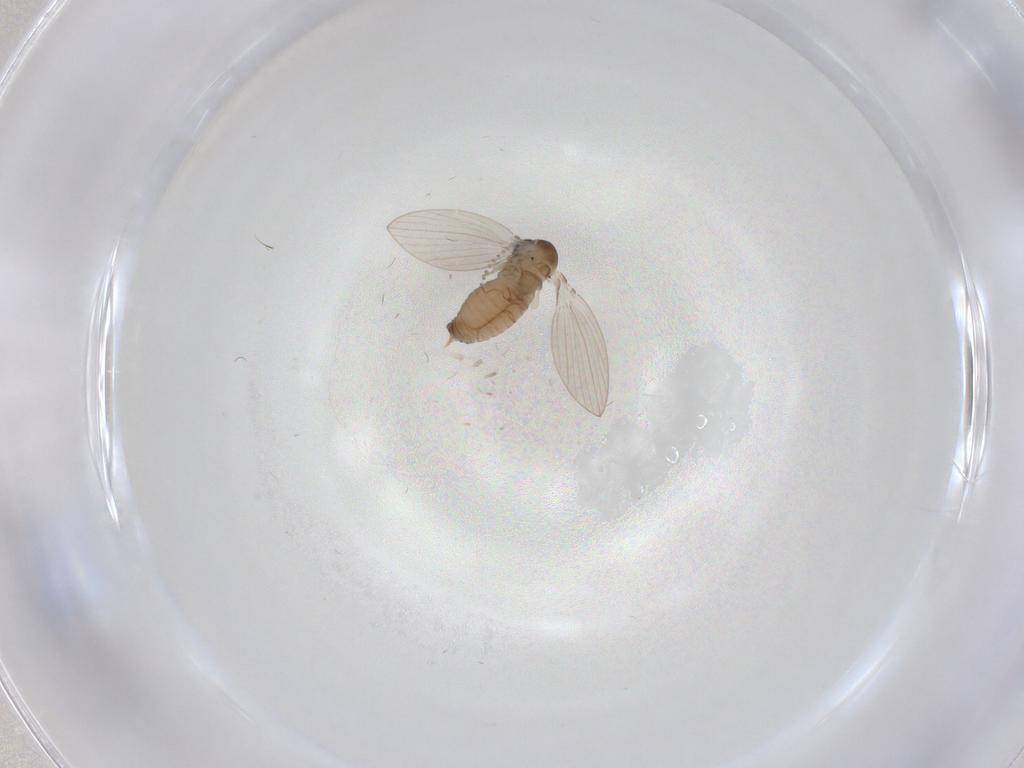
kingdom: Animalia
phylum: Arthropoda
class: Insecta
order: Diptera
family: Psychodidae
